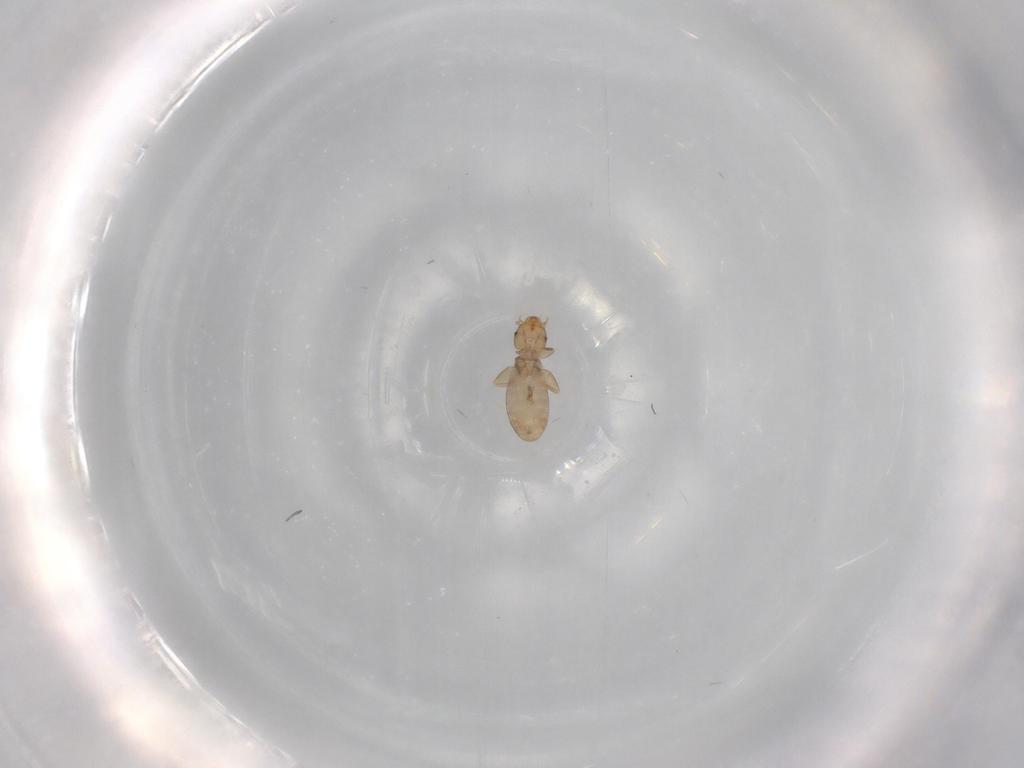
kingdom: Animalia
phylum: Arthropoda
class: Insecta
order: Psocodea
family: Liposcelididae
